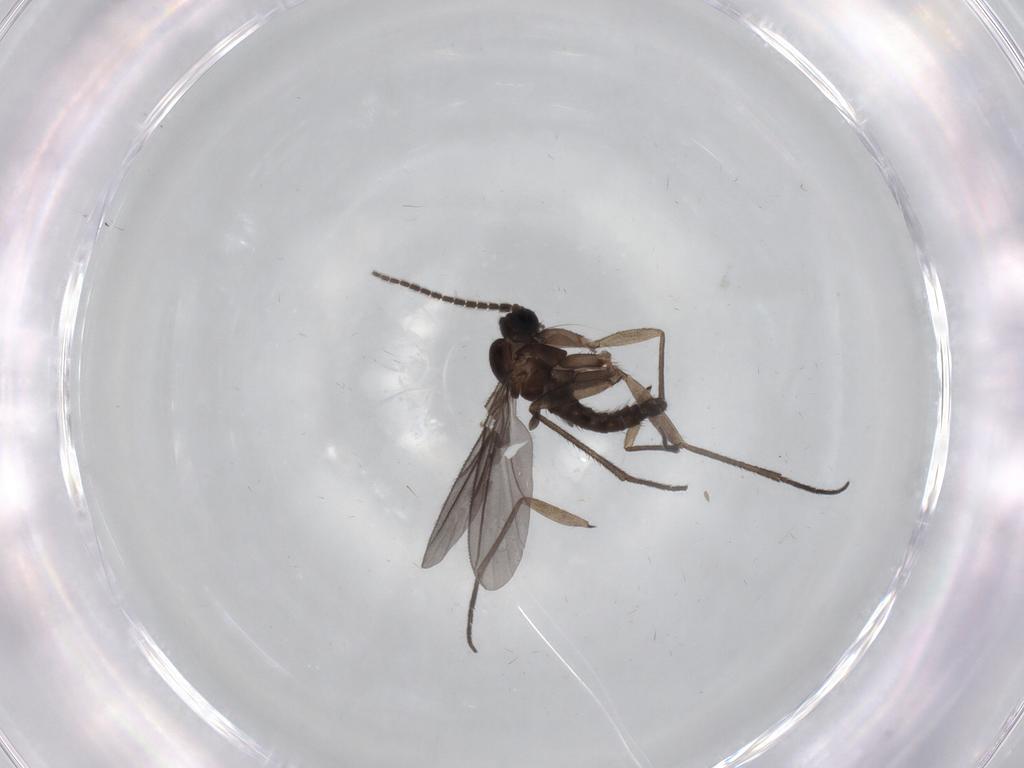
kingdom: Animalia
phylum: Arthropoda
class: Insecta
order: Diptera
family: Sciaridae
